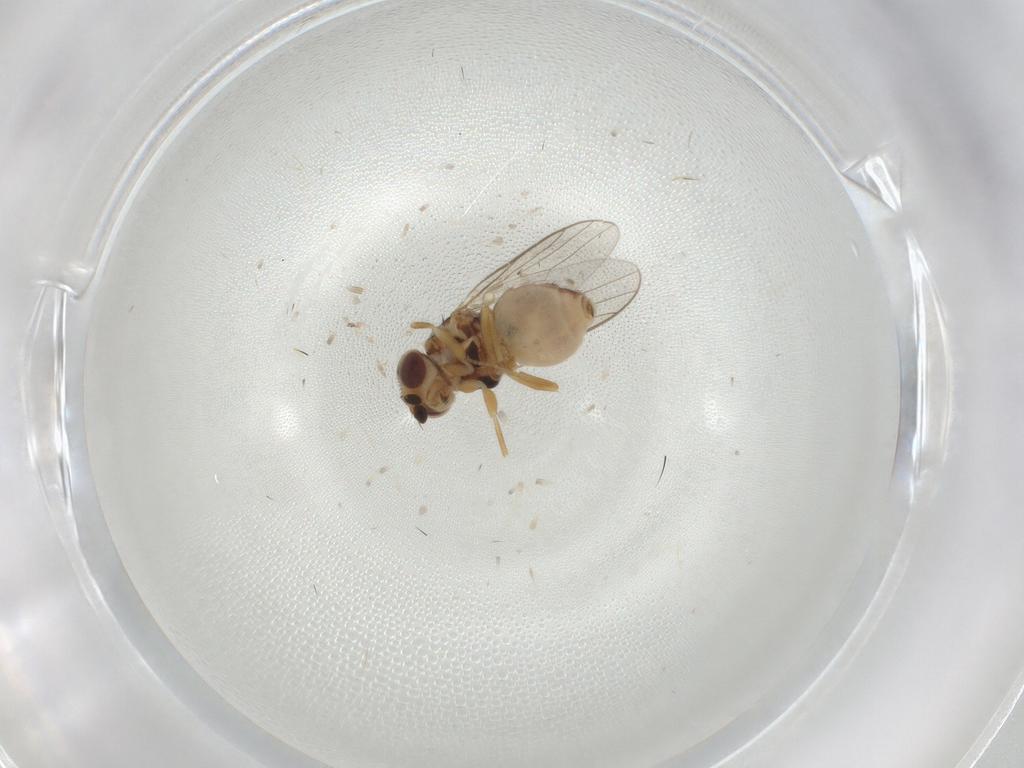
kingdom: Animalia
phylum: Arthropoda
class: Insecta
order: Diptera
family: Chloropidae
